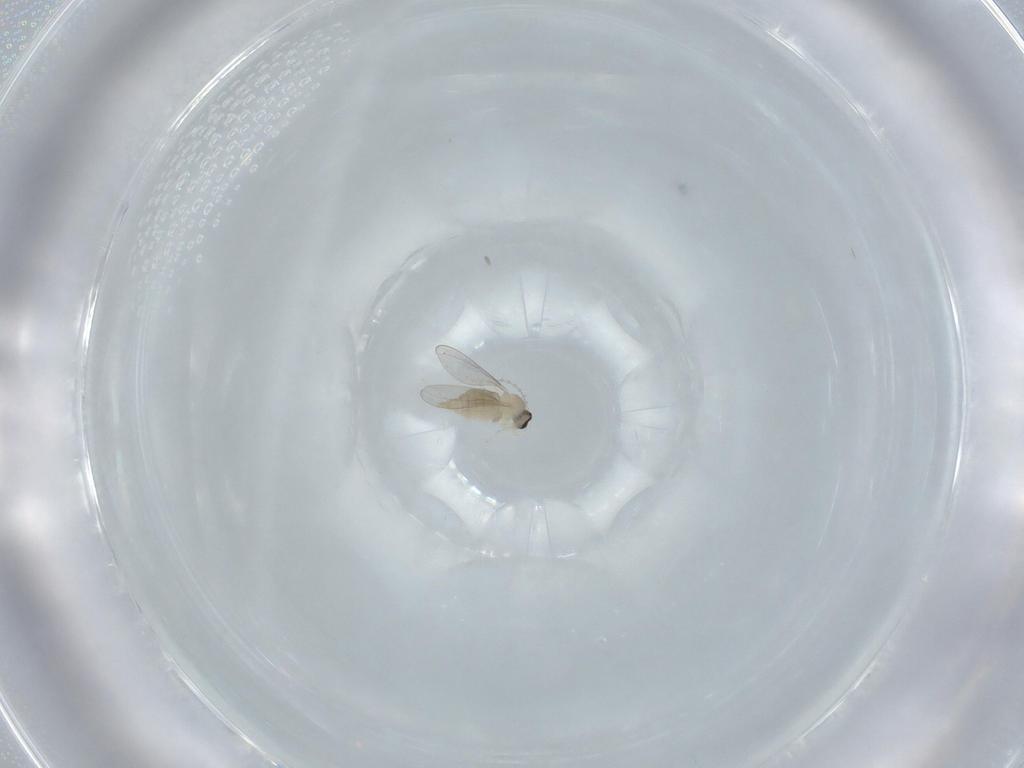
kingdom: Animalia
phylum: Arthropoda
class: Insecta
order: Diptera
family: Cecidomyiidae
